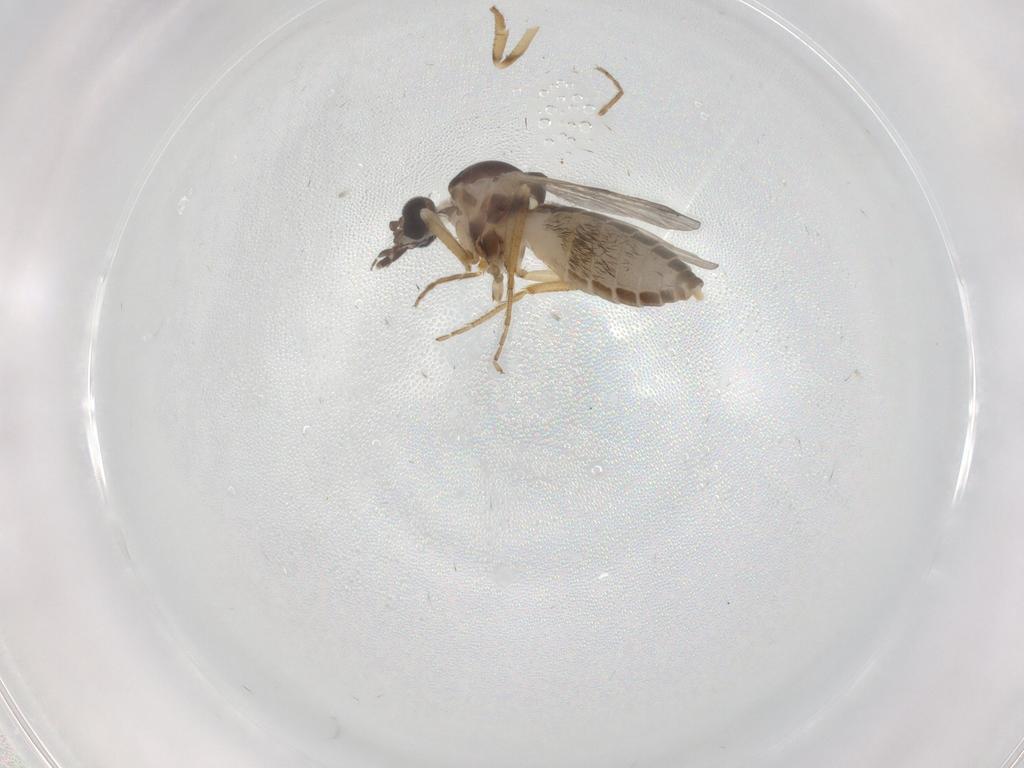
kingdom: Animalia
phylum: Arthropoda
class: Insecta
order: Diptera
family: Ceratopogonidae
